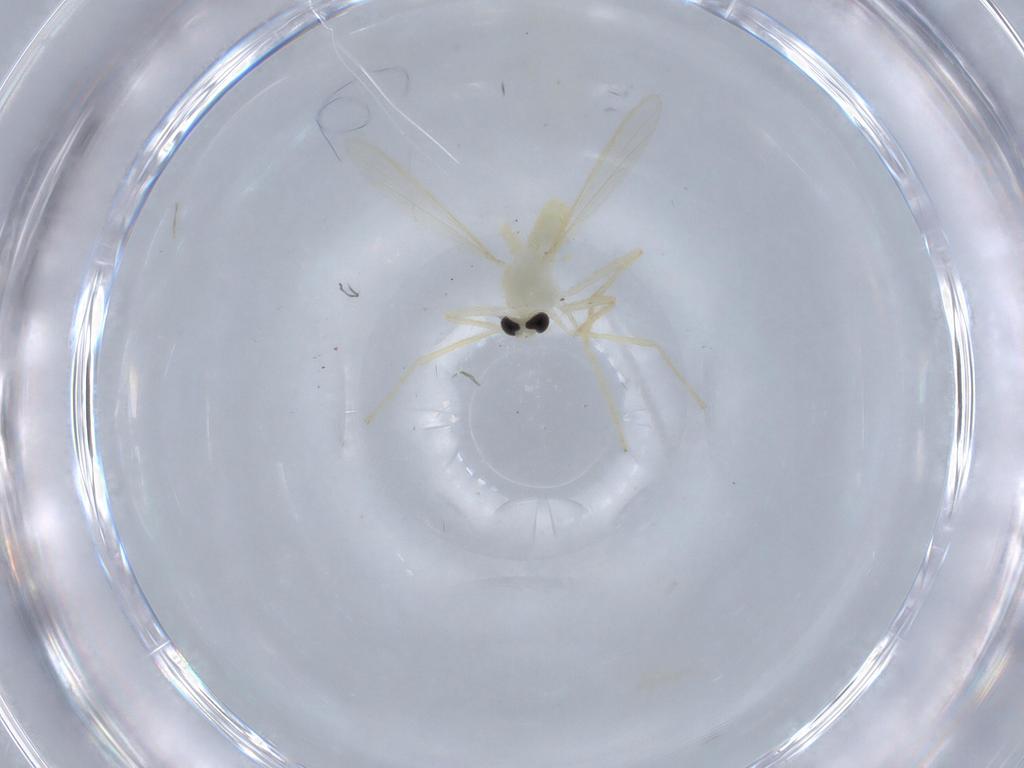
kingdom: Animalia
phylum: Arthropoda
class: Insecta
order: Diptera
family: Chironomidae
